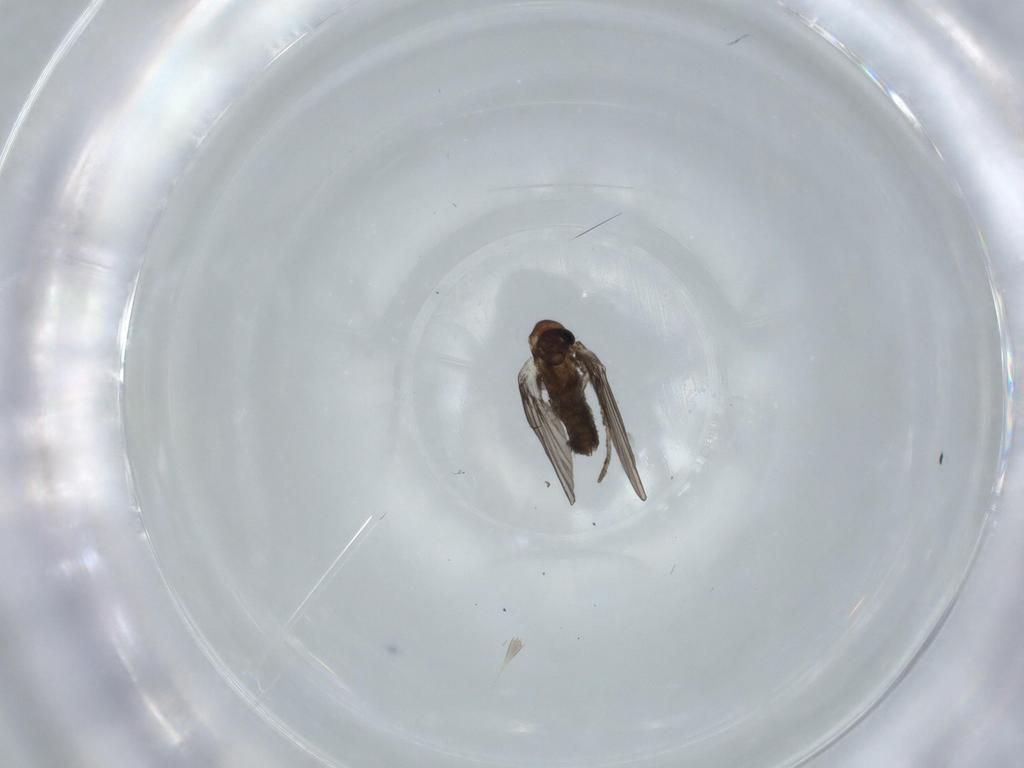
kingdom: Animalia
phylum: Arthropoda
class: Insecta
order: Diptera
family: Psychodidae
